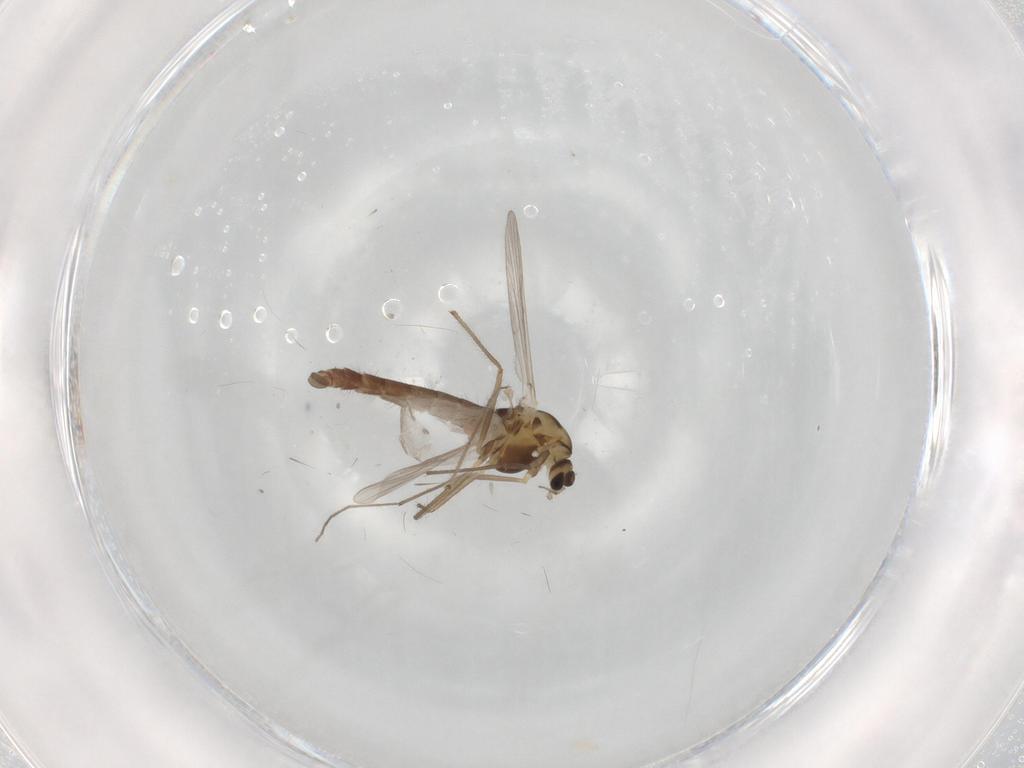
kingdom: Animalia
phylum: Arthropoda
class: Insecta
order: Diptera
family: Chironomidae
